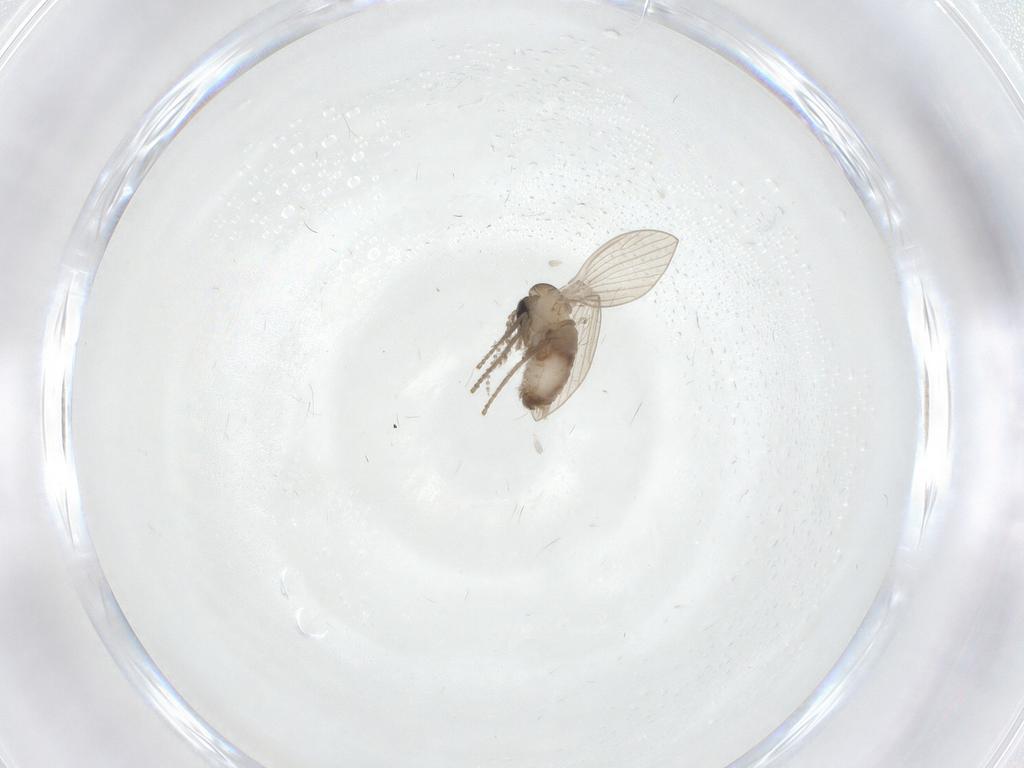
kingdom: Animalia
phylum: Arthropoda
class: Insecta
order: Diptera
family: Psychodidae
